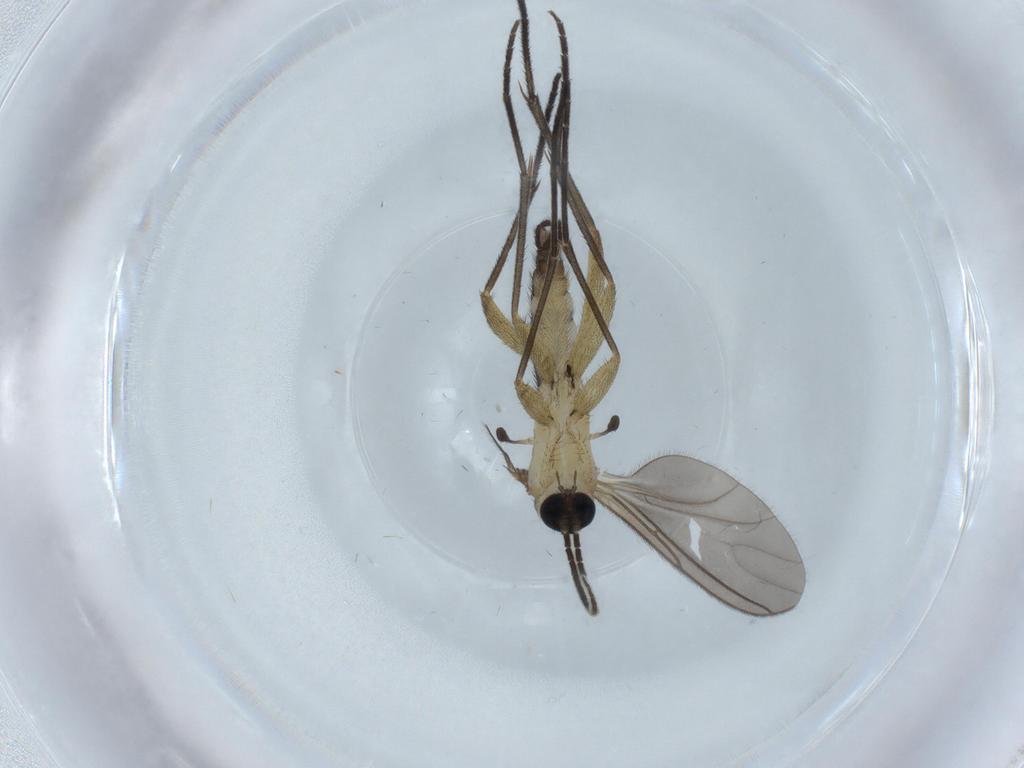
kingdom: Animalia
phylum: Arthropoda
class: Insecta
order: Diptera
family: Sciaridae
